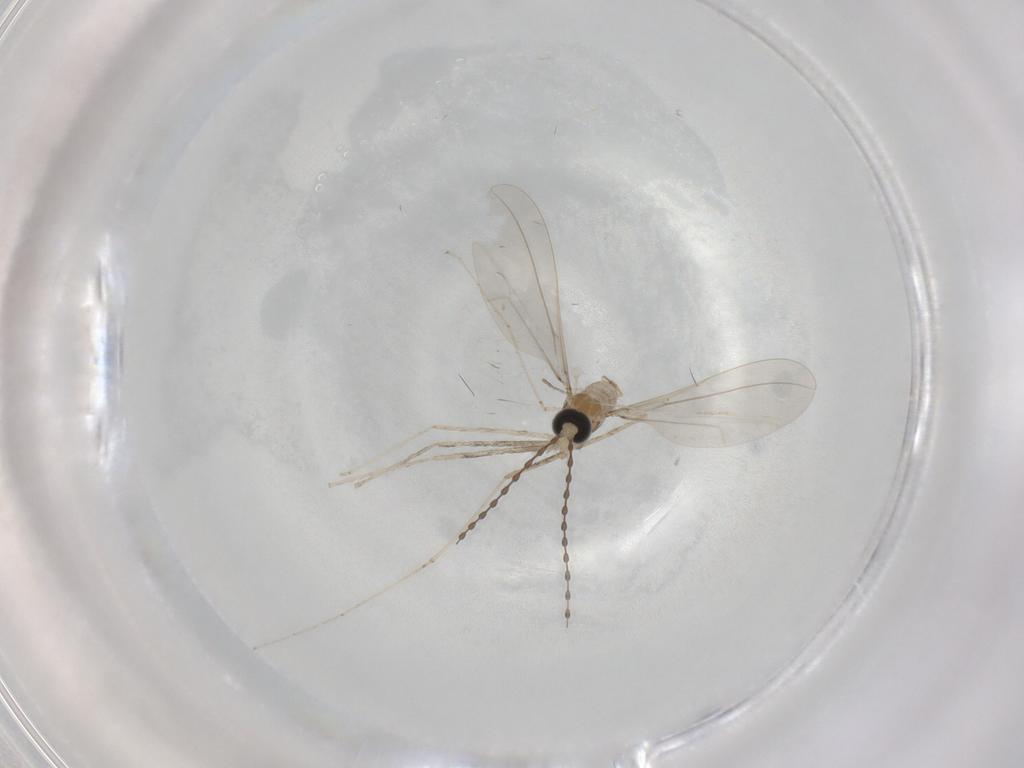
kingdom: Animalia
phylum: Arthropoda
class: Insecta
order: Diptera
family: Cecidomyiidae
